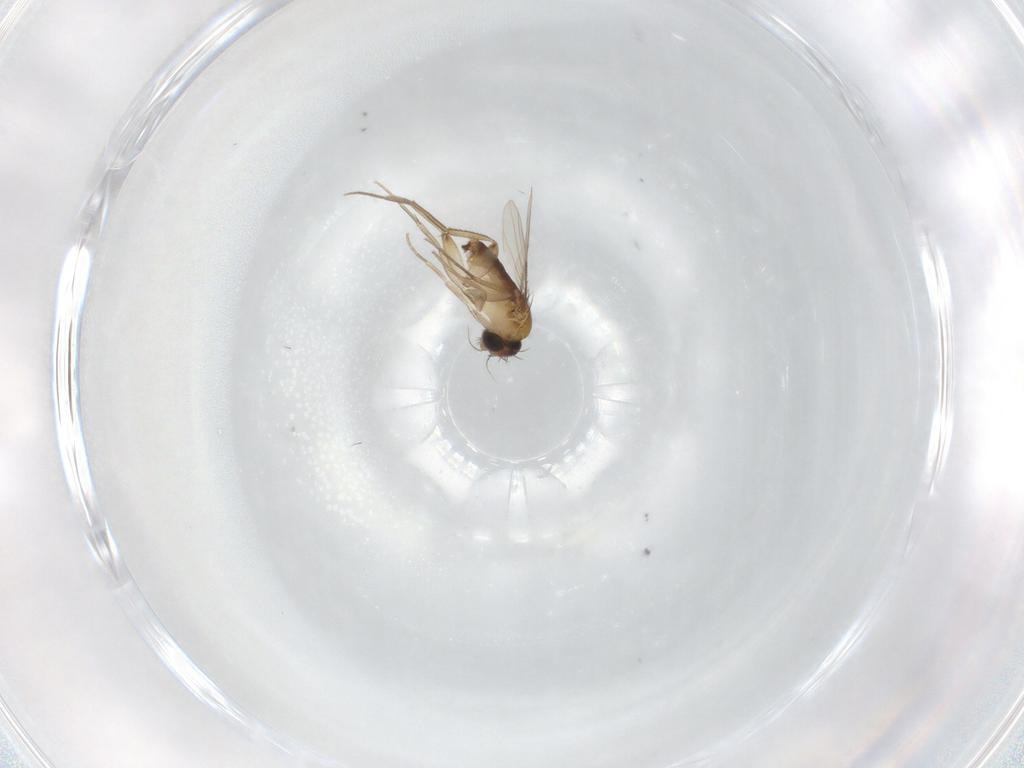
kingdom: Animalia
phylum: Arthropoda
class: Insecta
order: Diptera
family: Phoridae
